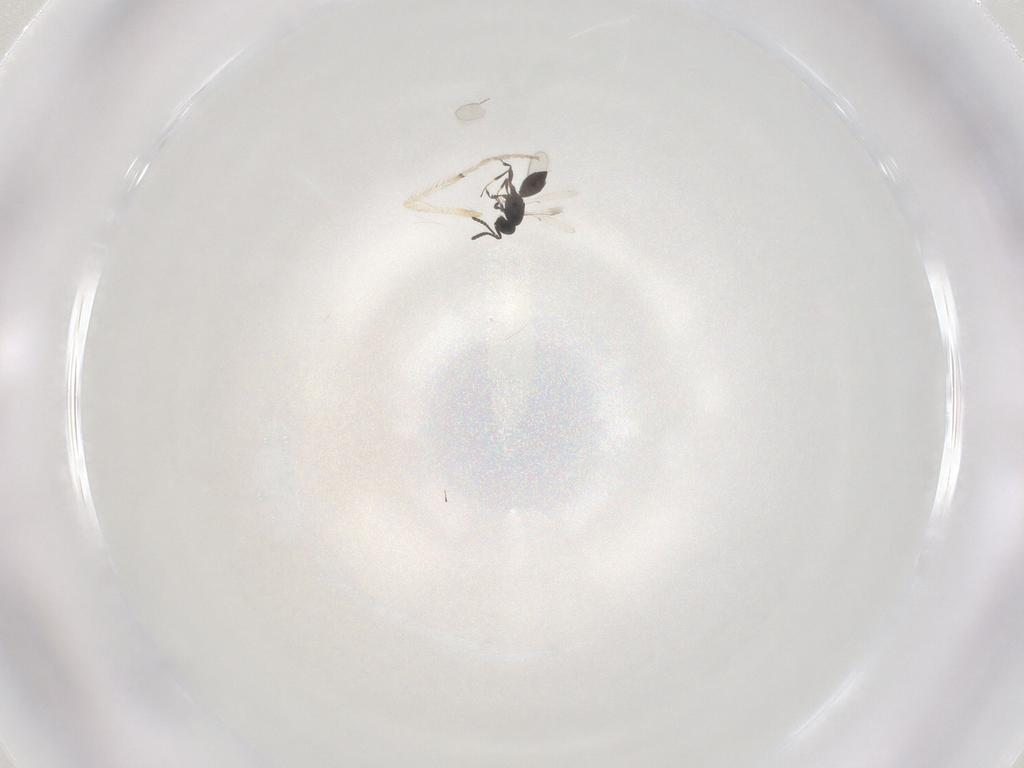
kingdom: Animalia
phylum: Arthropoda
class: Insecta
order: Hymenoptera
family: Scelionidae
